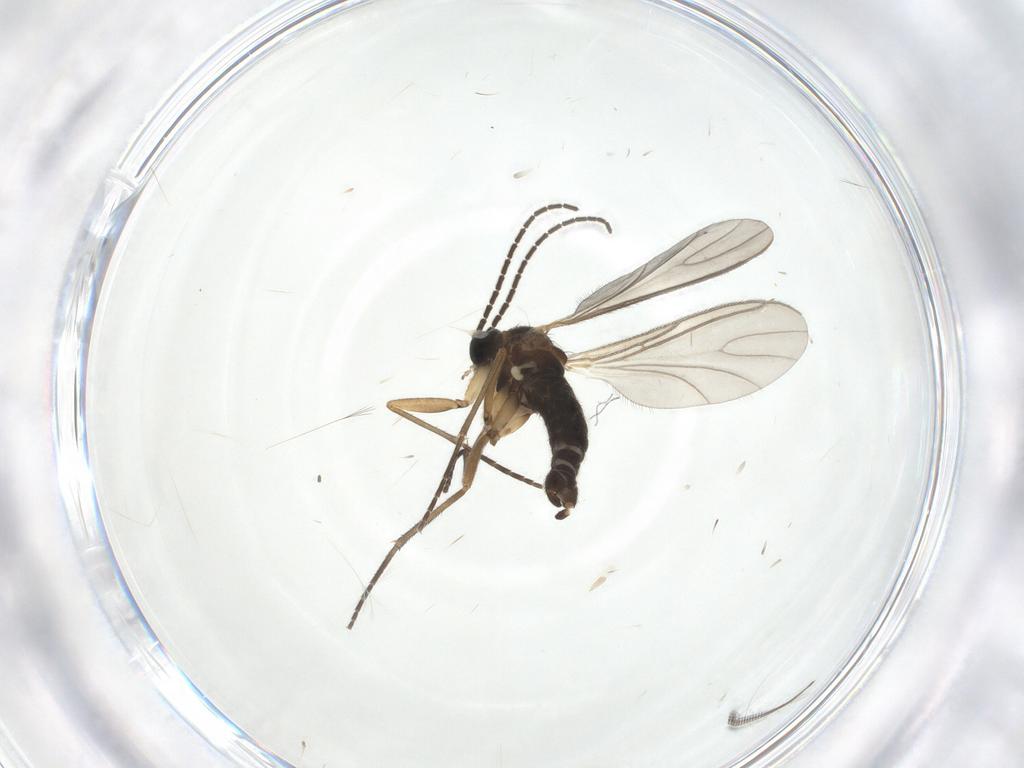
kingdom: Animalia
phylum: Arthropoda
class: Insecta
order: Diptera
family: Sciaridae
